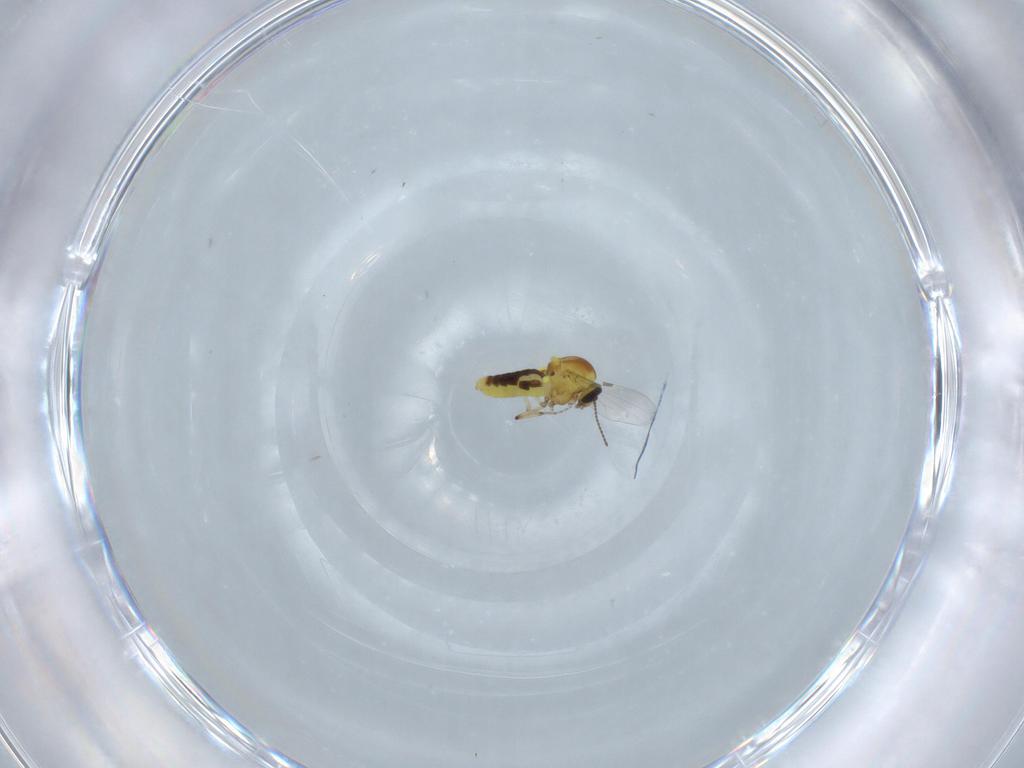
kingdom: Animalia
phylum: Arthropoda
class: Insecta
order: Diptera
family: Ceratopogonidae
